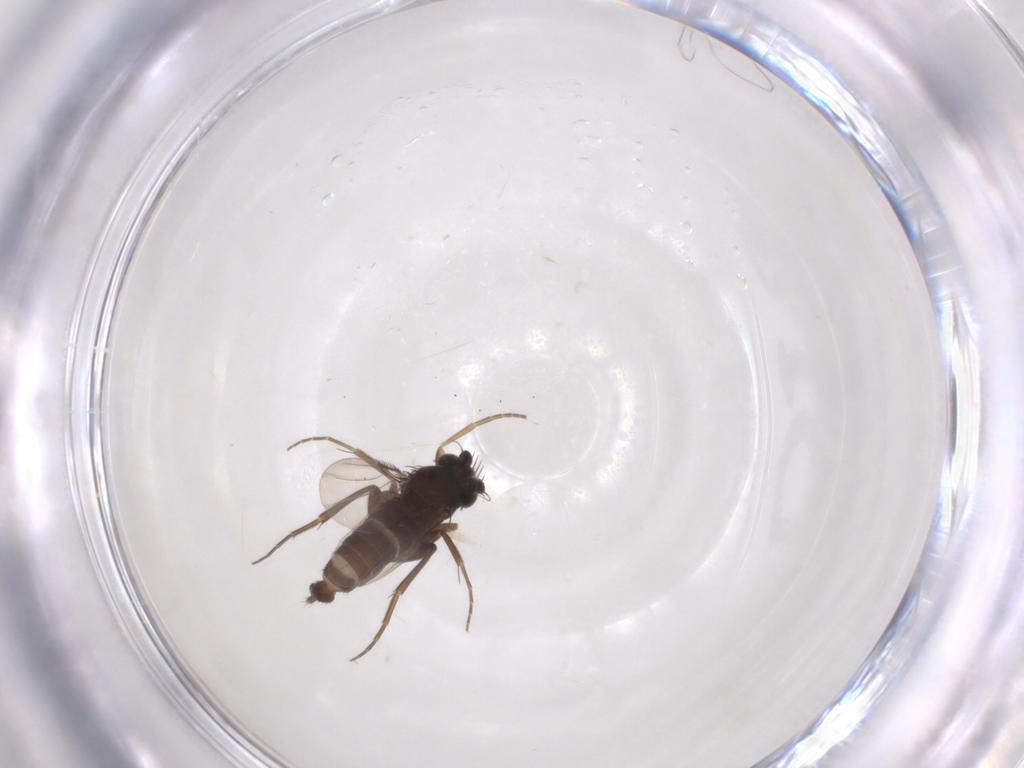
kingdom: Animalia
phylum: Arthropoda
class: Insecta
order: Diptera
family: Phoridae
